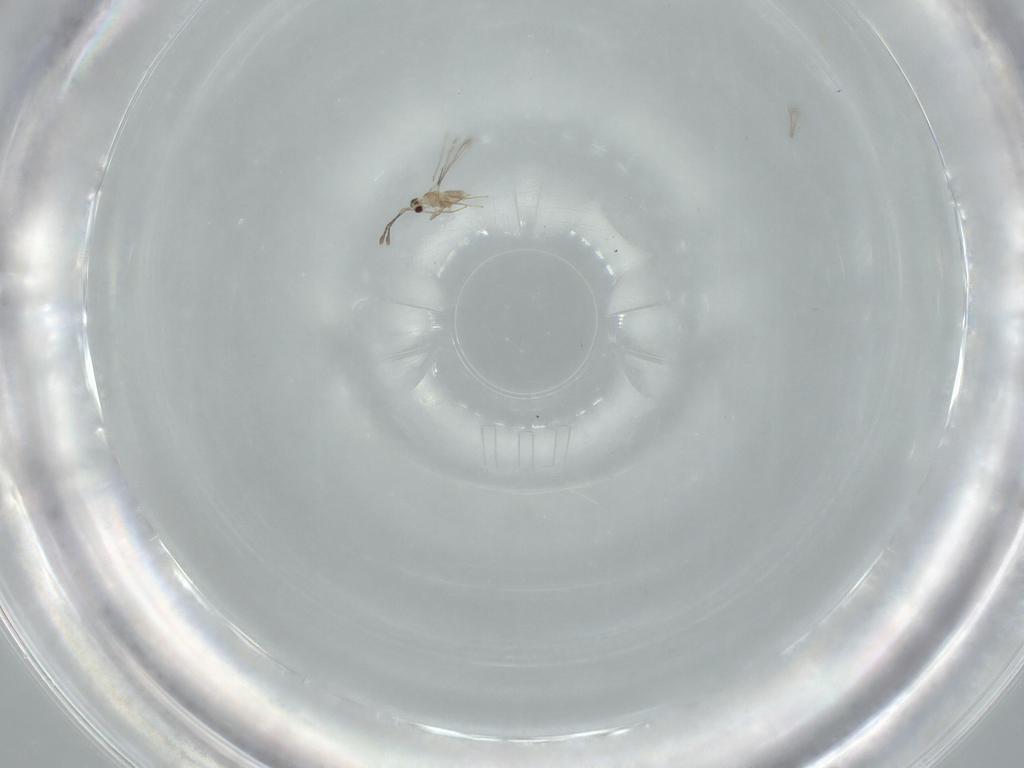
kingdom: Animalia
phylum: Arthropoda
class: Insecta
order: Hymenoptera
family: Mymaridae
